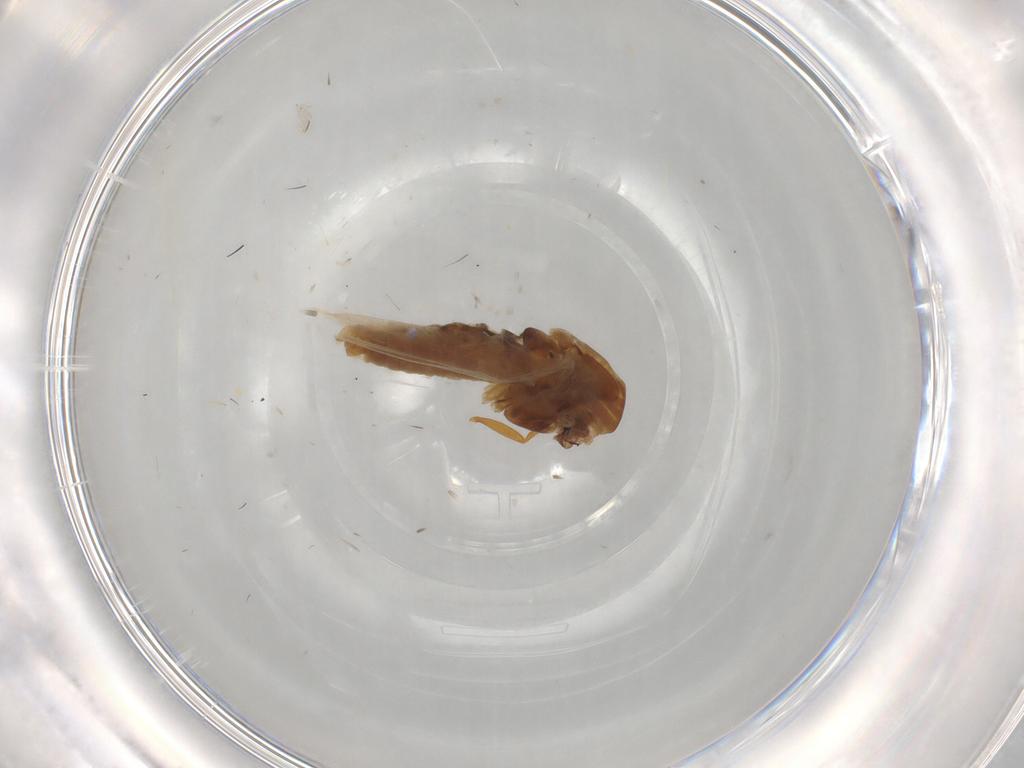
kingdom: Animalia
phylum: Arthropoda
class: Insecta
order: Diptera
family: Chironomidae
